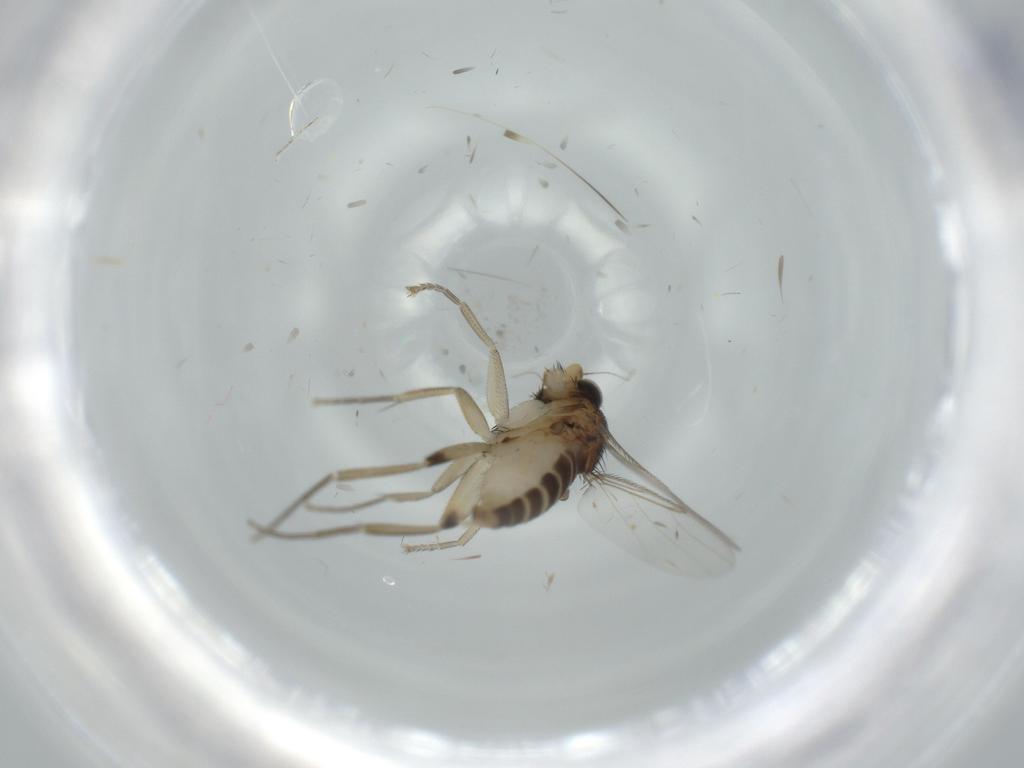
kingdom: Animalia
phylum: Arthropoda
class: Insecta
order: Diptera
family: Phoridae
